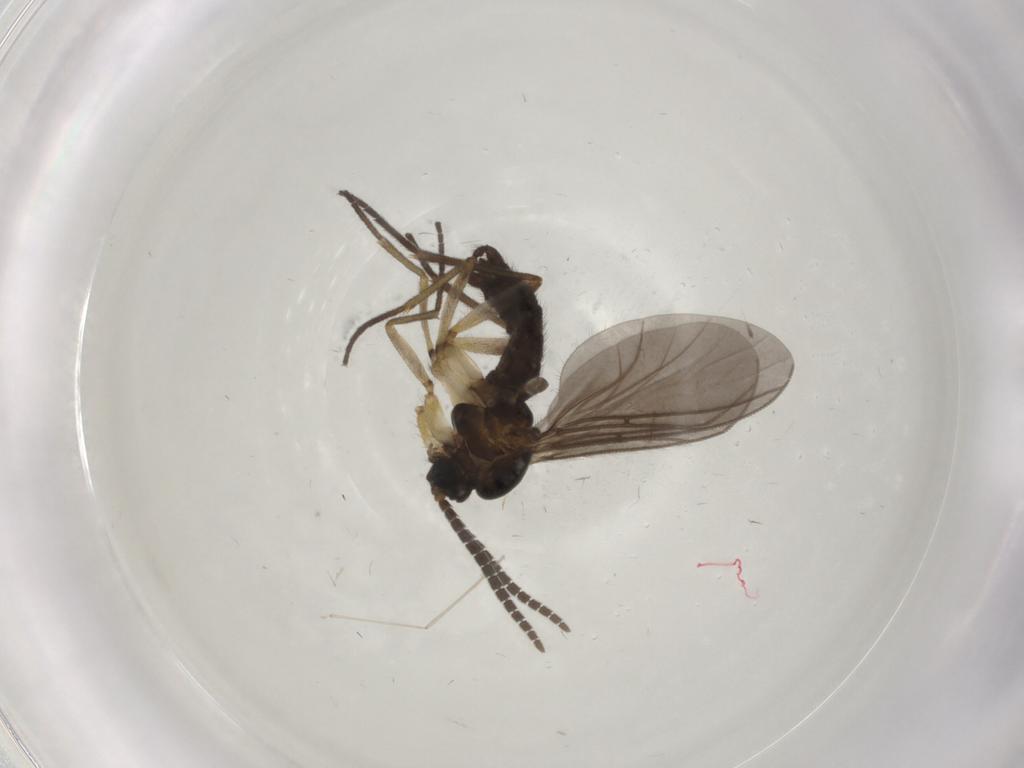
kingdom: Animalia
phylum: Arthropoda
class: Insecta
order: Diptera
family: Sciaridae
